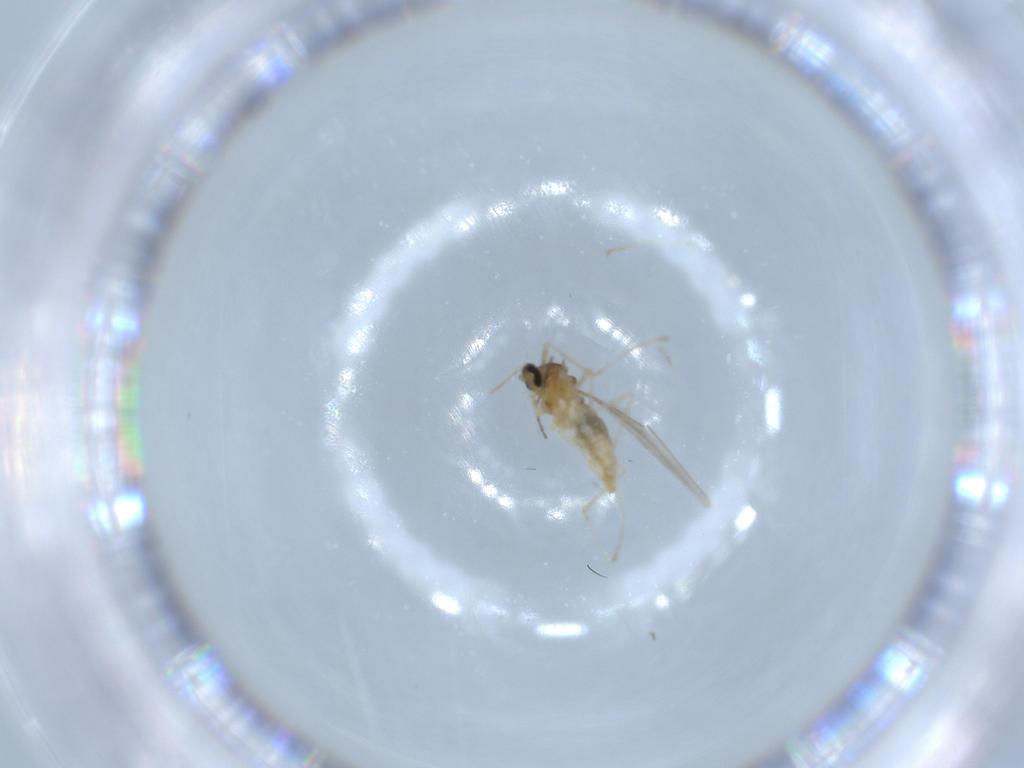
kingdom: Animalia
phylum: Arthropoda
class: Insecta
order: Diptera
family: Cecidomyiidae
